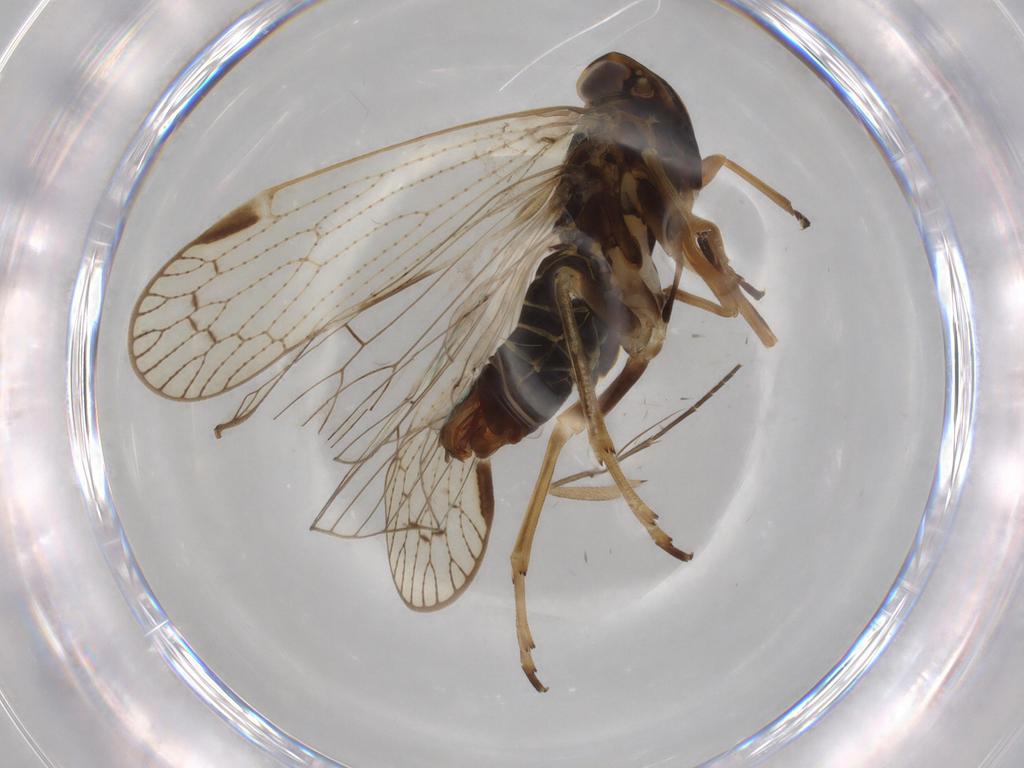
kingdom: Animalia
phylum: Arthropoda
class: Insecta
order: Hemiptera
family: Cixiidae
